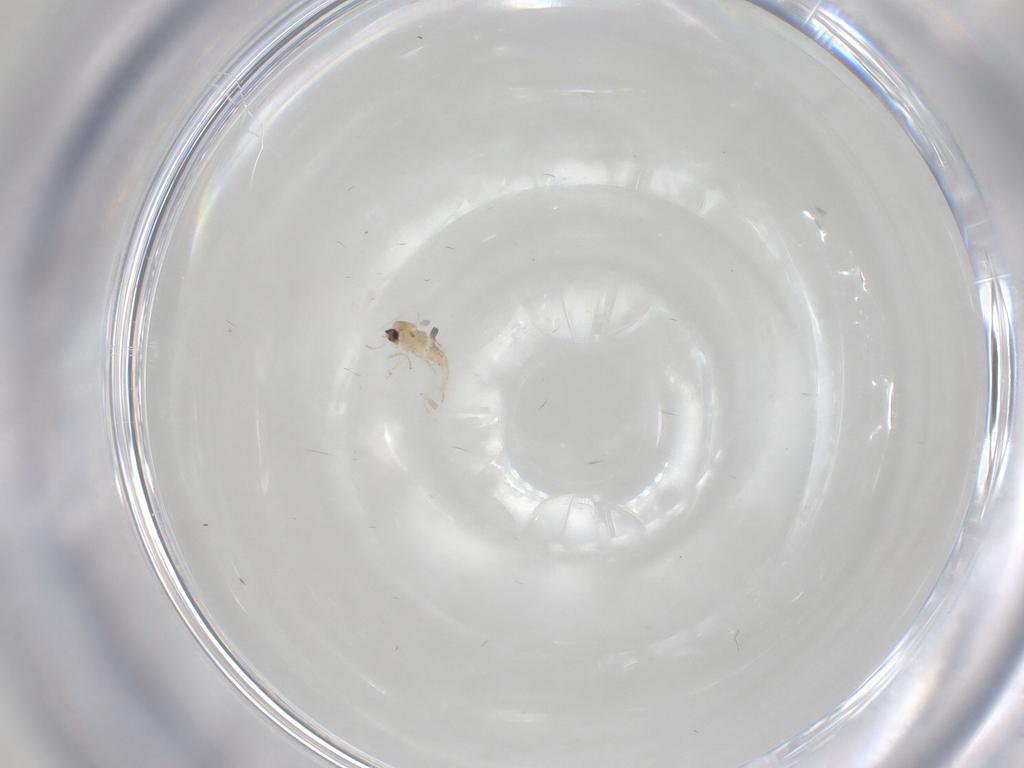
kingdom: Animalia
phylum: Arthropoda
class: Insecta
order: Diptera
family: Cecidomyiidae
